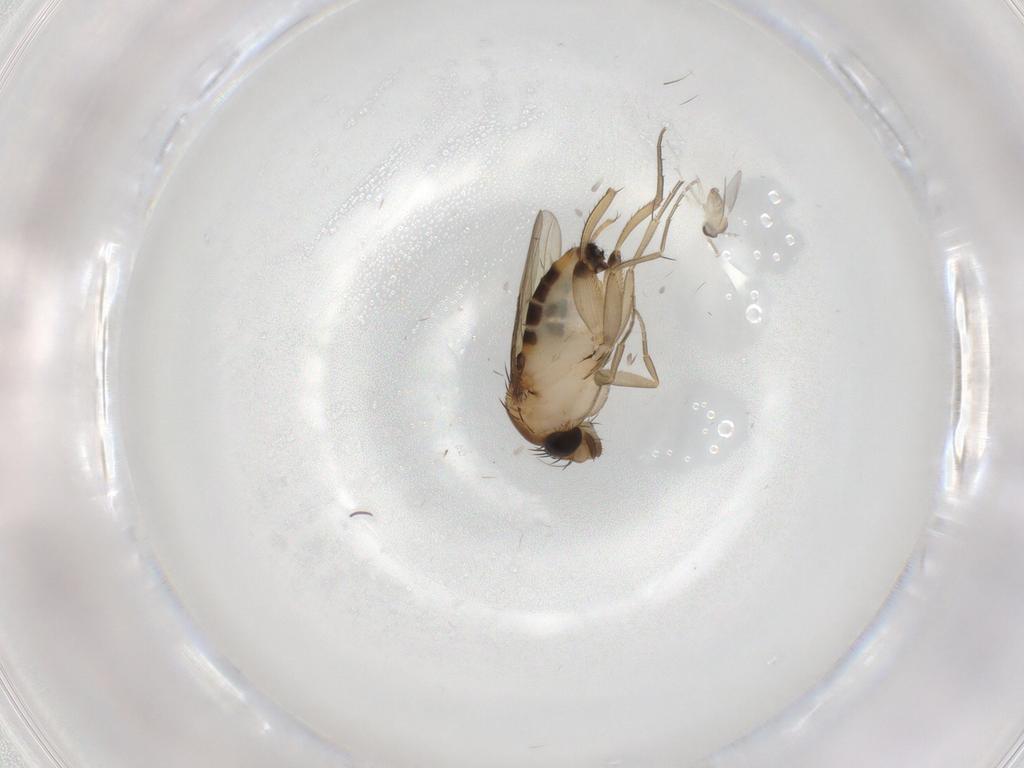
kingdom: Animalia
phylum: Arthropoda
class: Insecta
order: Diptera
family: Phoridae
